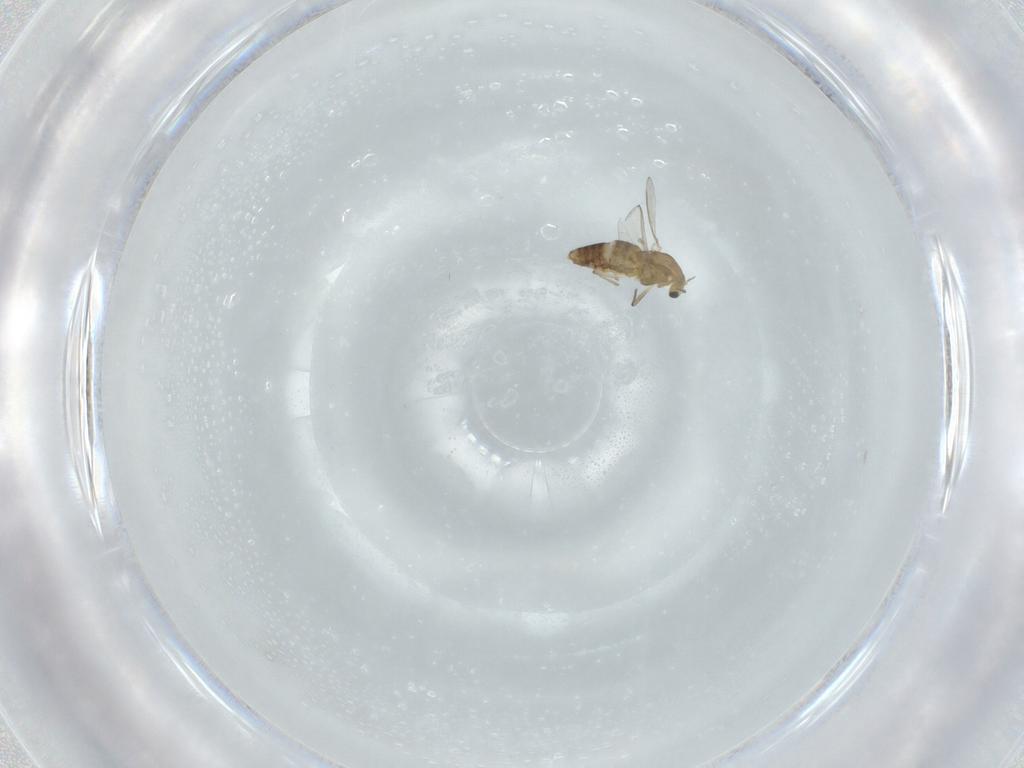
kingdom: Animalia
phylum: Arthropoda
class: Insecta
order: Diptera
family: Chironomidae
